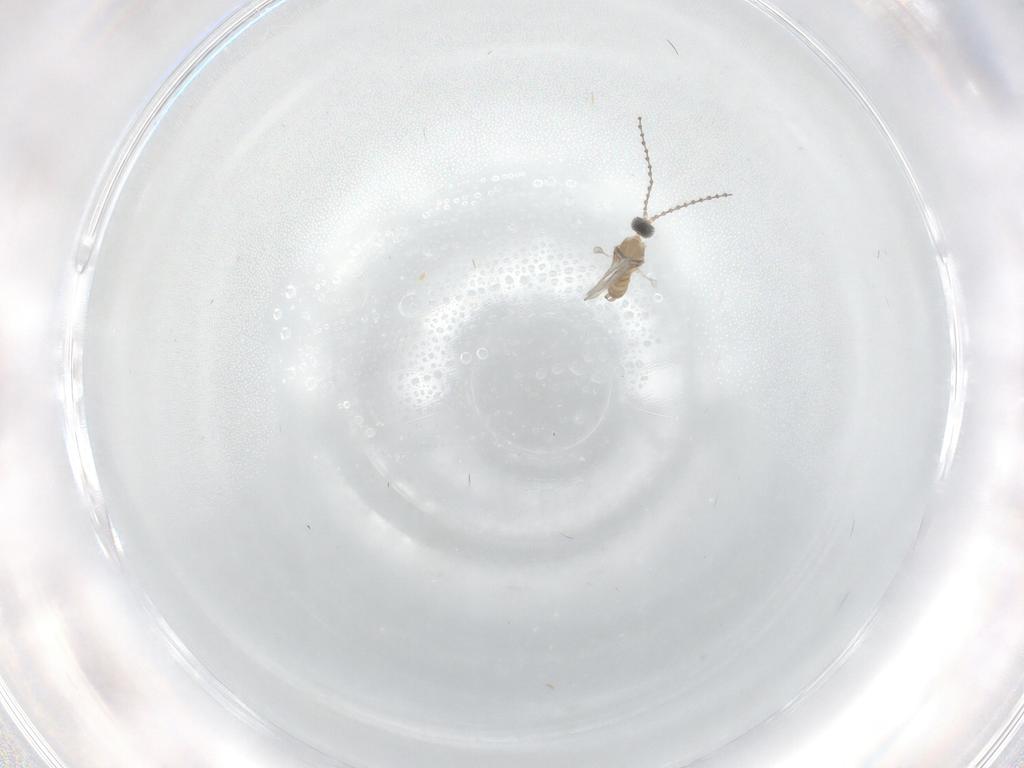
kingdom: Animalia
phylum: Arthropoda
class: Insecta
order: Diptera
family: Cecidomyiidae
